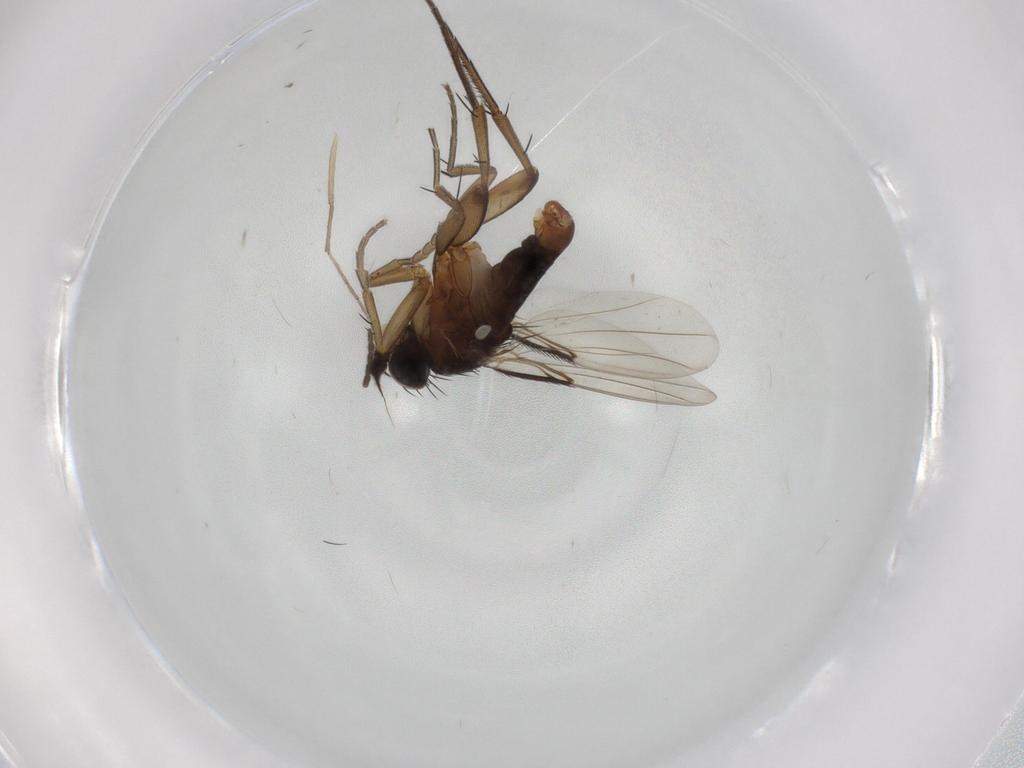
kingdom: Animalia
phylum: Arthropoda
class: Insecta
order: Diptera
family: Phoridae
